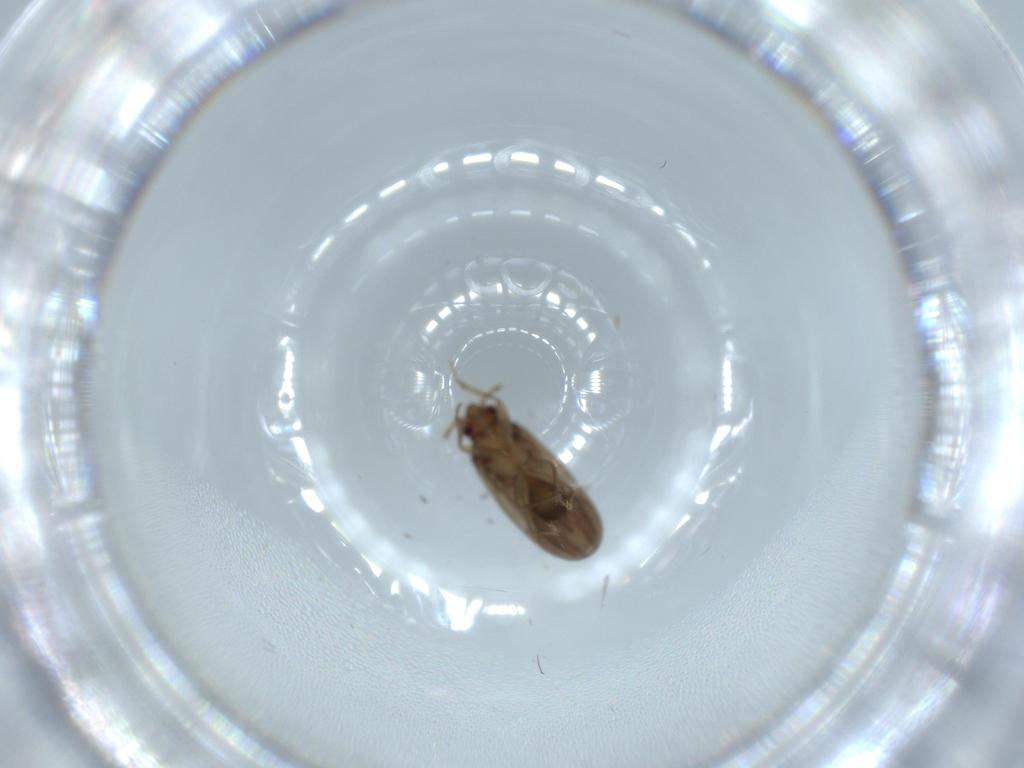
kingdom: Animalia
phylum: Arthropoda
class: Insecta
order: Hemiptera
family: Ceratocombidae
